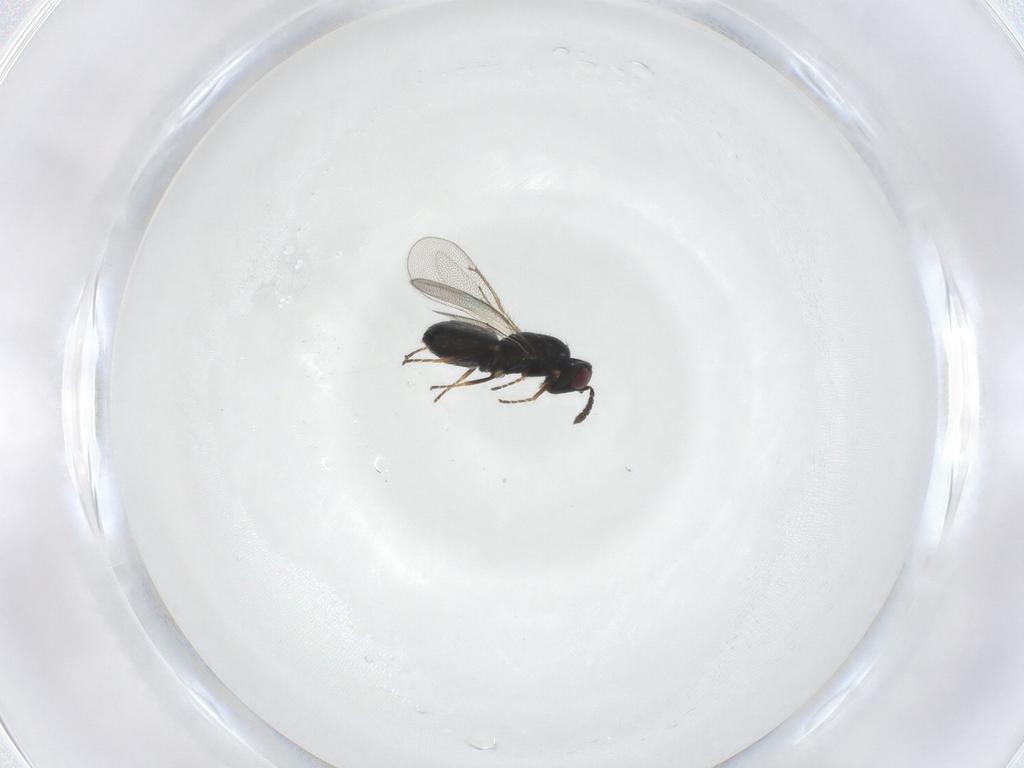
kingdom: Animalia
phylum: Arthropoda
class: Insecta
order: Hymenoptera
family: Eulophidae
